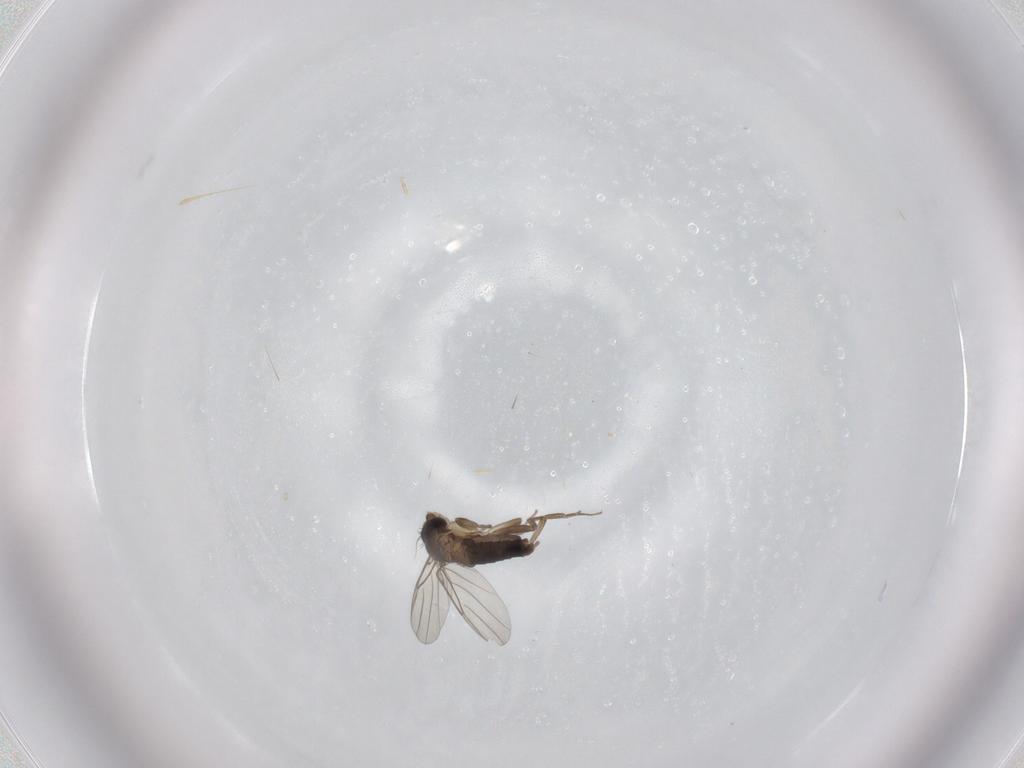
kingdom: Animalia
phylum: Arthropoda
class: Insecta
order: Diptera
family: Phoridae
